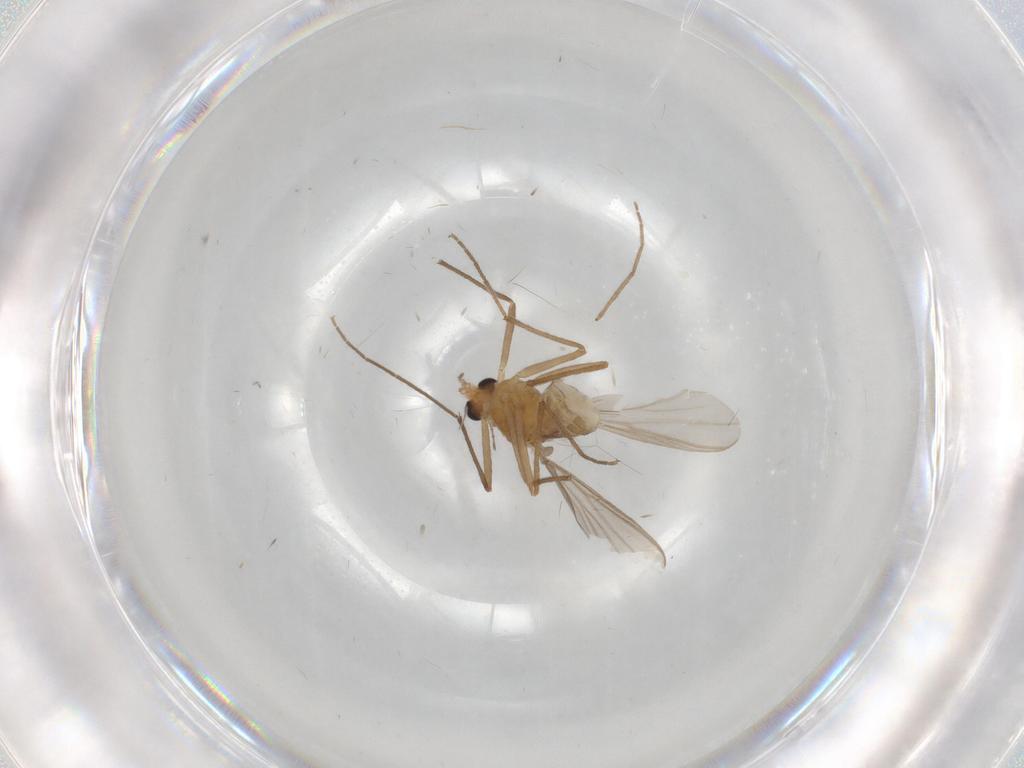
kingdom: Animalia
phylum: Arthropoda
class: Insecta
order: Diptera
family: Chironomidae
